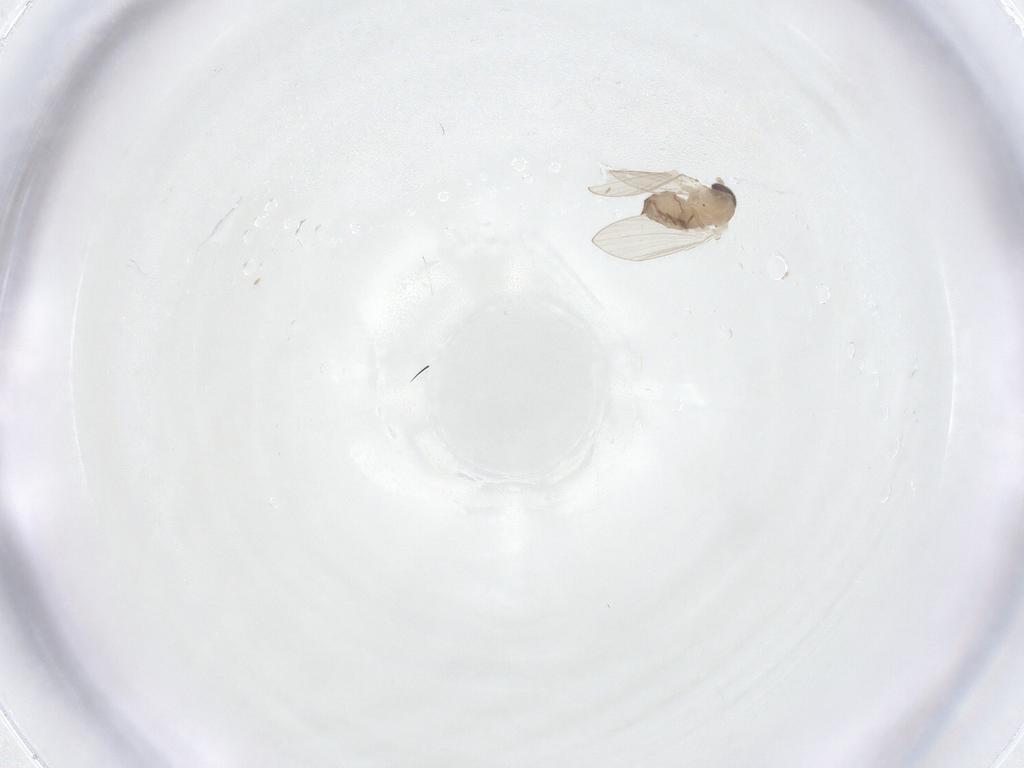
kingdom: Animalia
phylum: Arthropoda
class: Insecta
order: Diptera
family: Psychodidae
